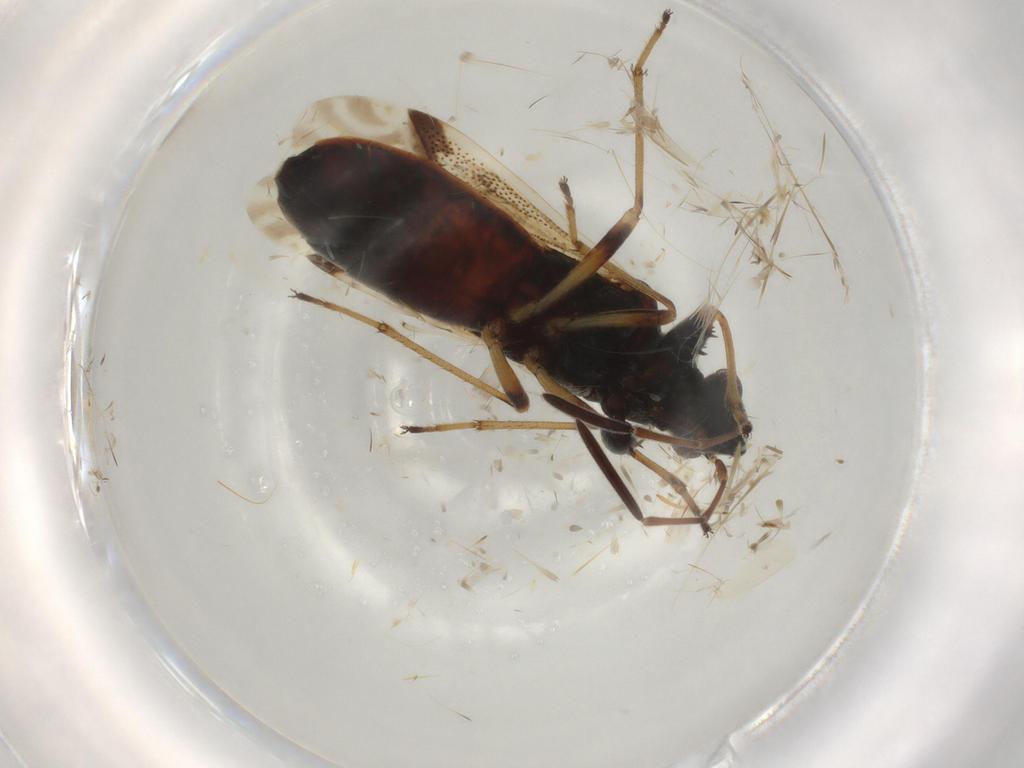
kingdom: Animalia
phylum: Arthropoda
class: Insecta
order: Hemiptera
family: Rhyparochromidae
